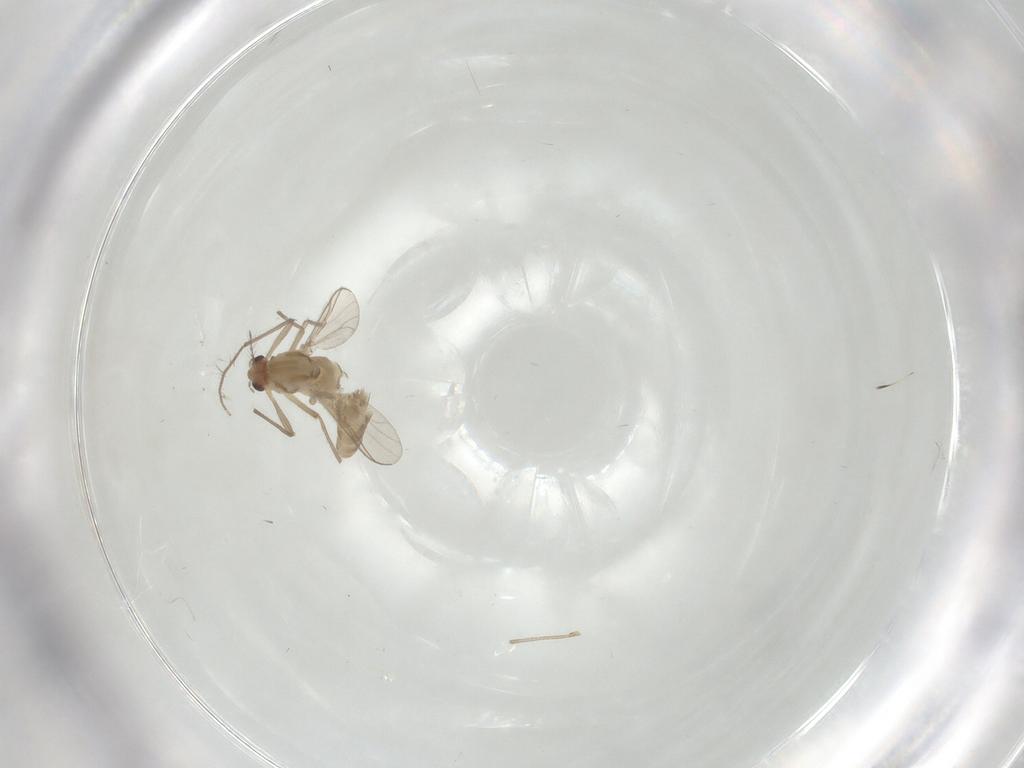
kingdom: Animalia
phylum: Arthropoda
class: Insecta
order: Diptera
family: Chironomidae
